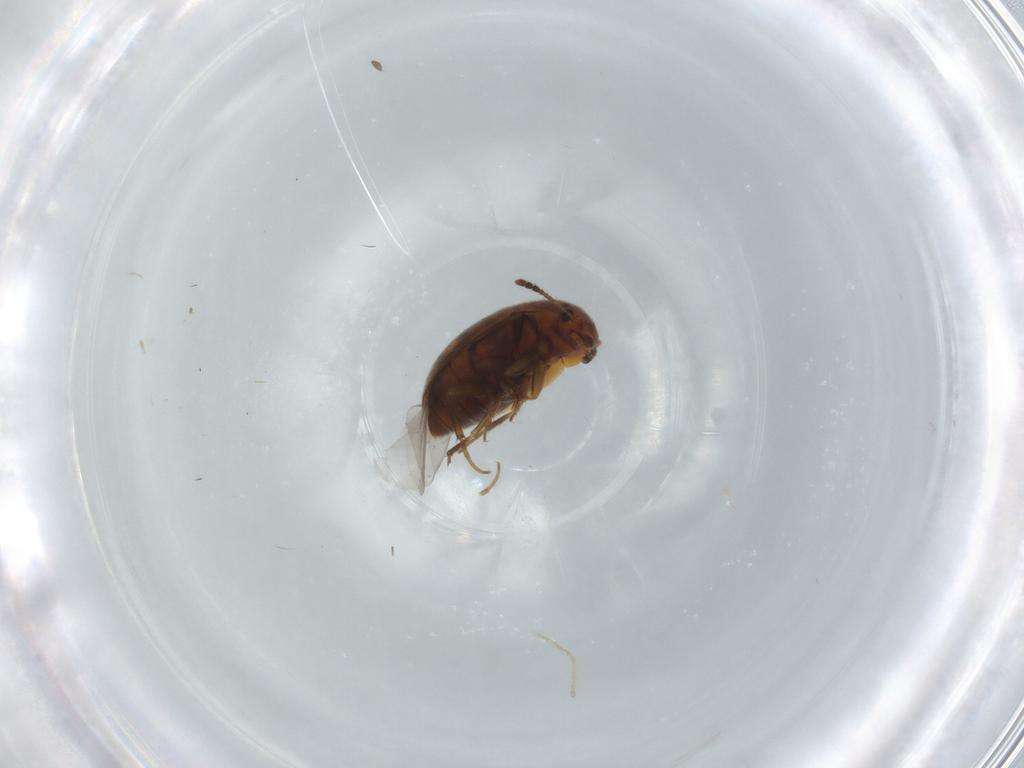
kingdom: Animalia
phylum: Arthropoda
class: Insecta
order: Coleoptera
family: Mycetophagidae
